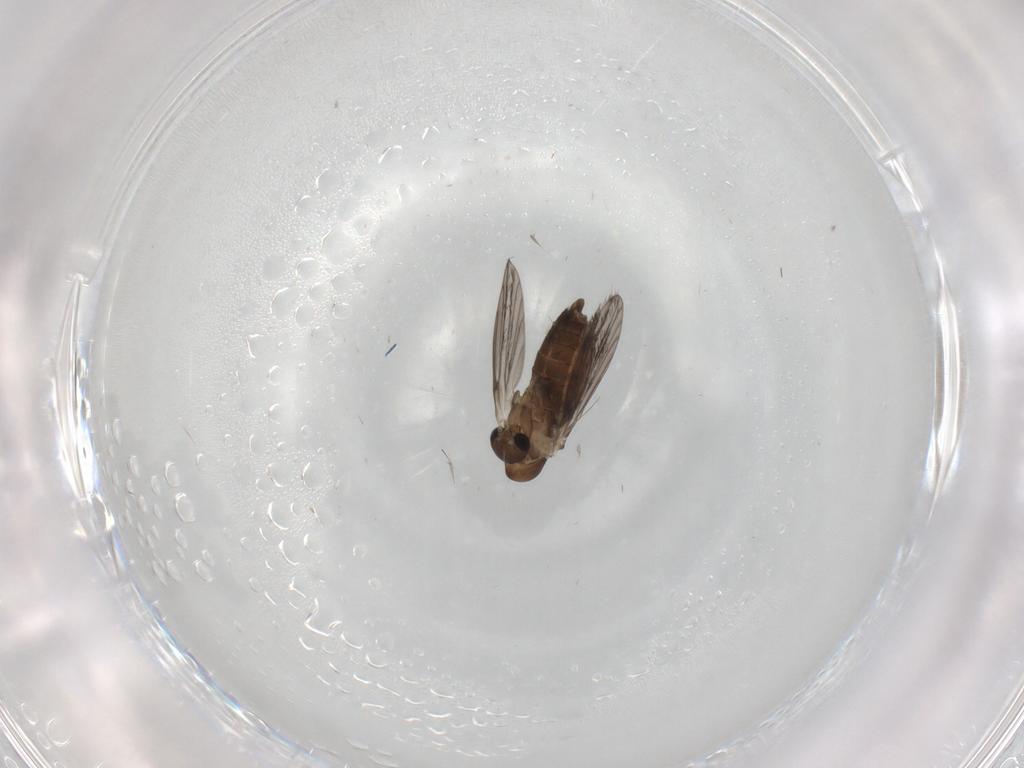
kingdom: Animalia
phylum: Arthropoda
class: Insecta
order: Diptera
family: Psychodidae
